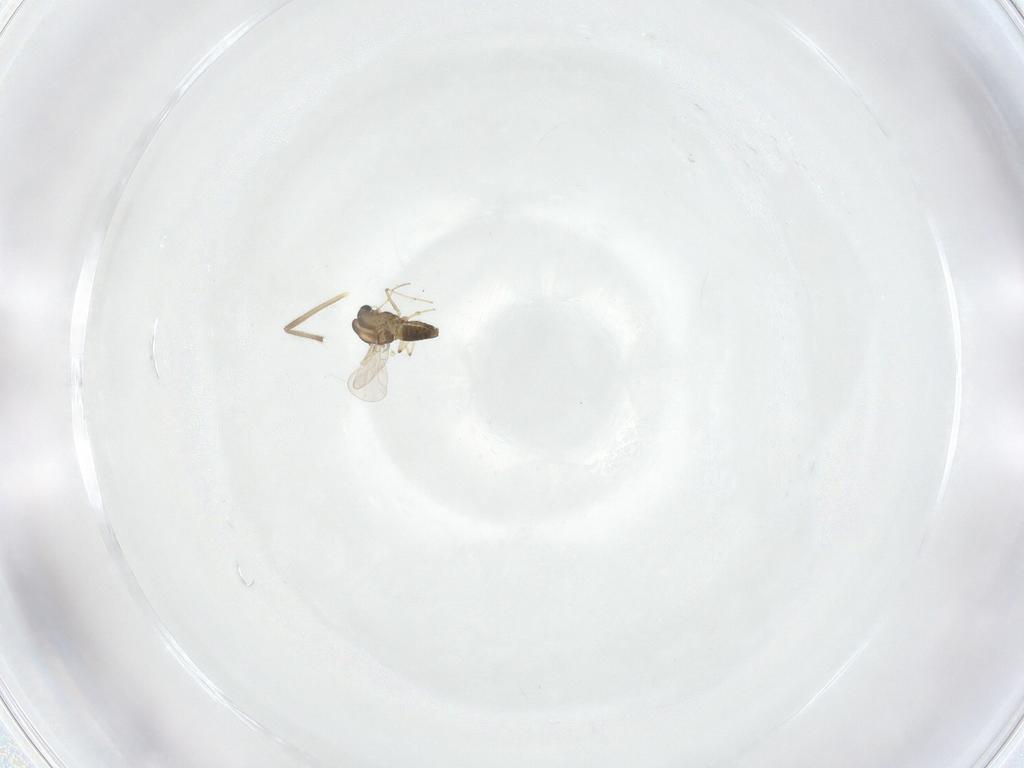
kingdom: Animalia
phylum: Arthropoda
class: Insecta
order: Diptera
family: Chironomidae
